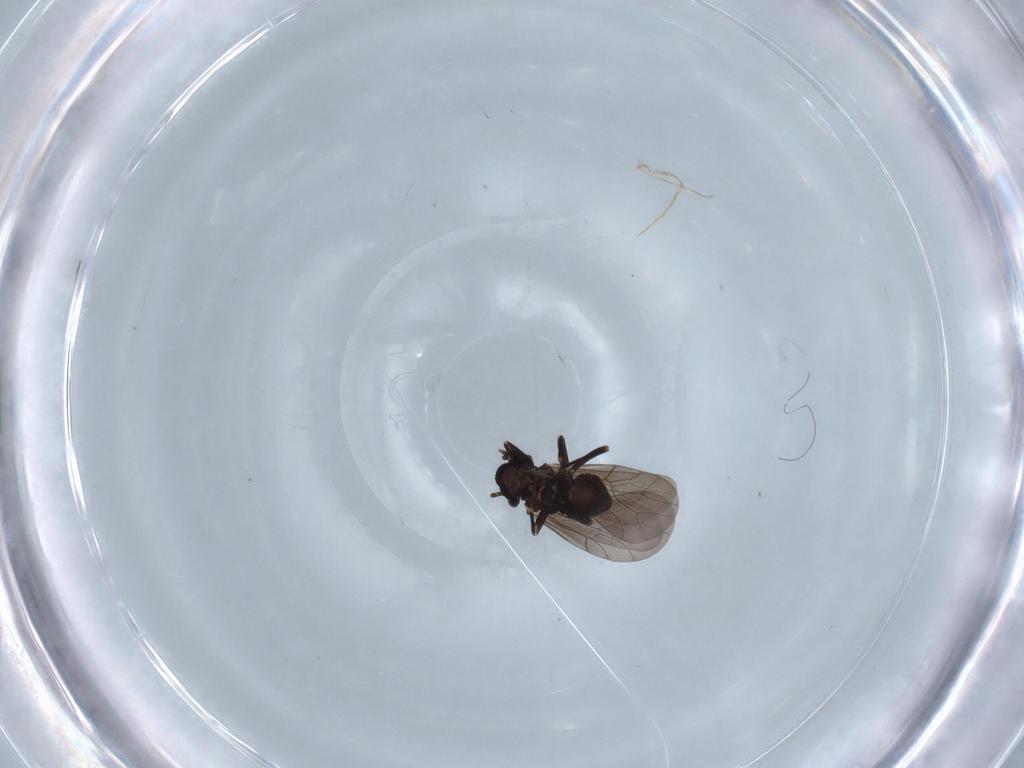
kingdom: Animalia
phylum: Arthropoda
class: Insecta
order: Psocodea
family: Lepidopsocidae
